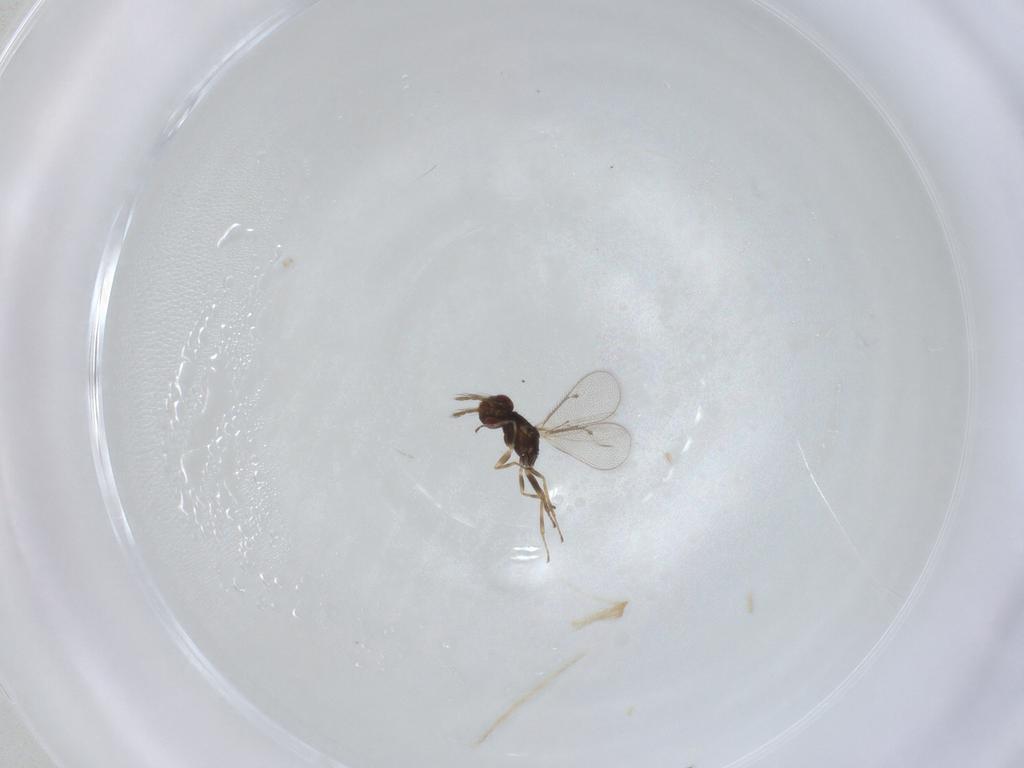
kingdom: Animalia
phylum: Arthropoda
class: Insecta
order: Hymenoptera
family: Eulophidae
